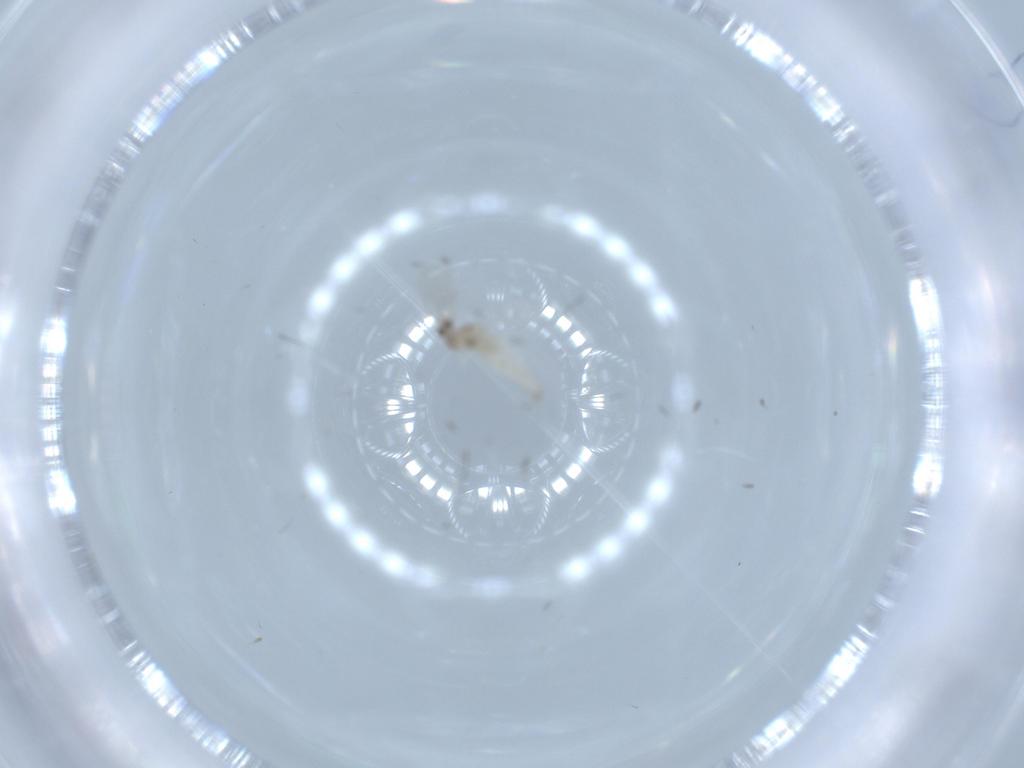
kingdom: Animalia
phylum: Arthropoda
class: Insecta
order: Diptera
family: Cecidomyiidae
